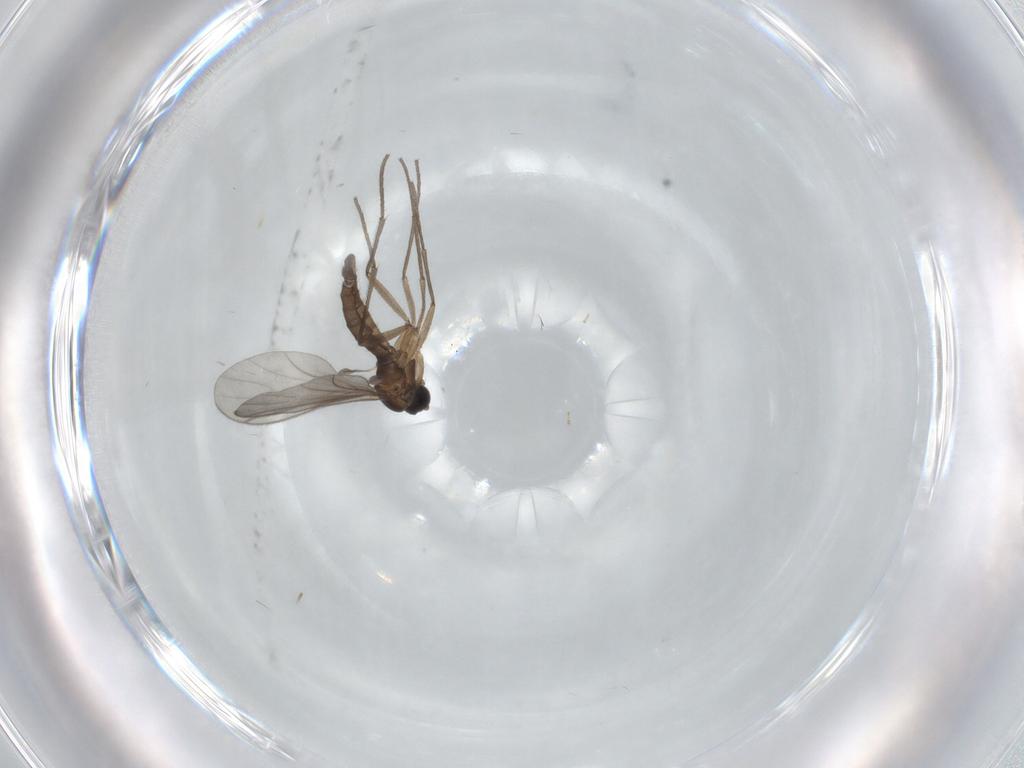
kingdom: Animalia
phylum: Arthropoda
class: Insecta
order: Diptera
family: Sciaridae
